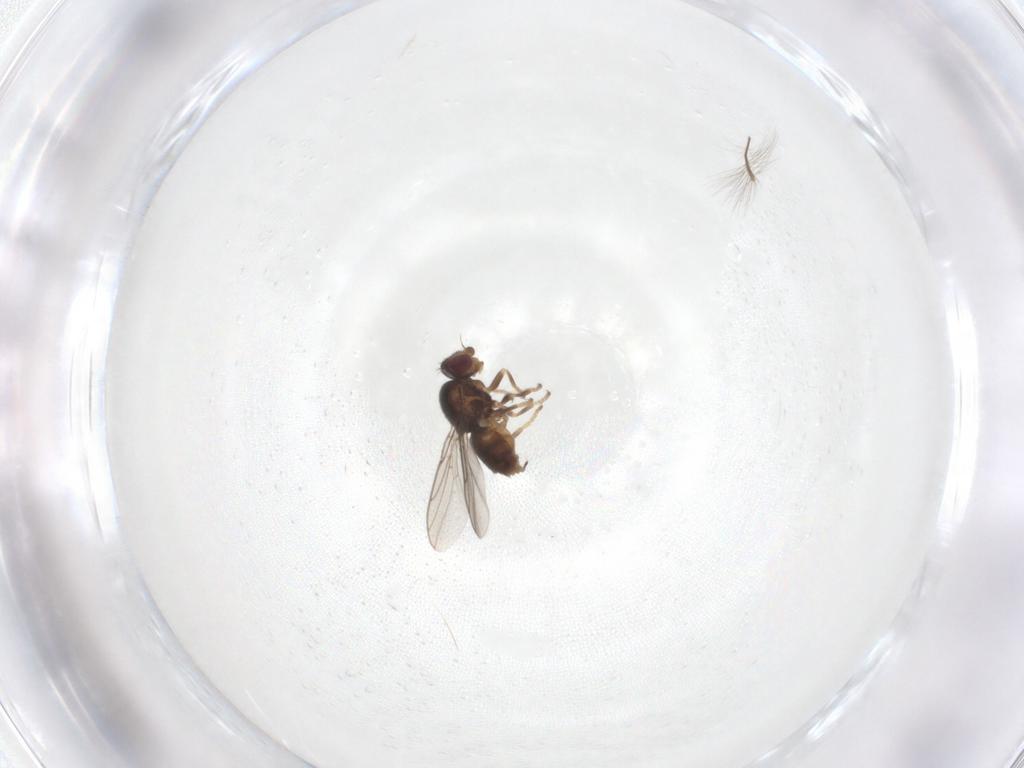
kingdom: Animalia
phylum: Arthropoda
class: Insecta
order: Diptera
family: Chloropidae
